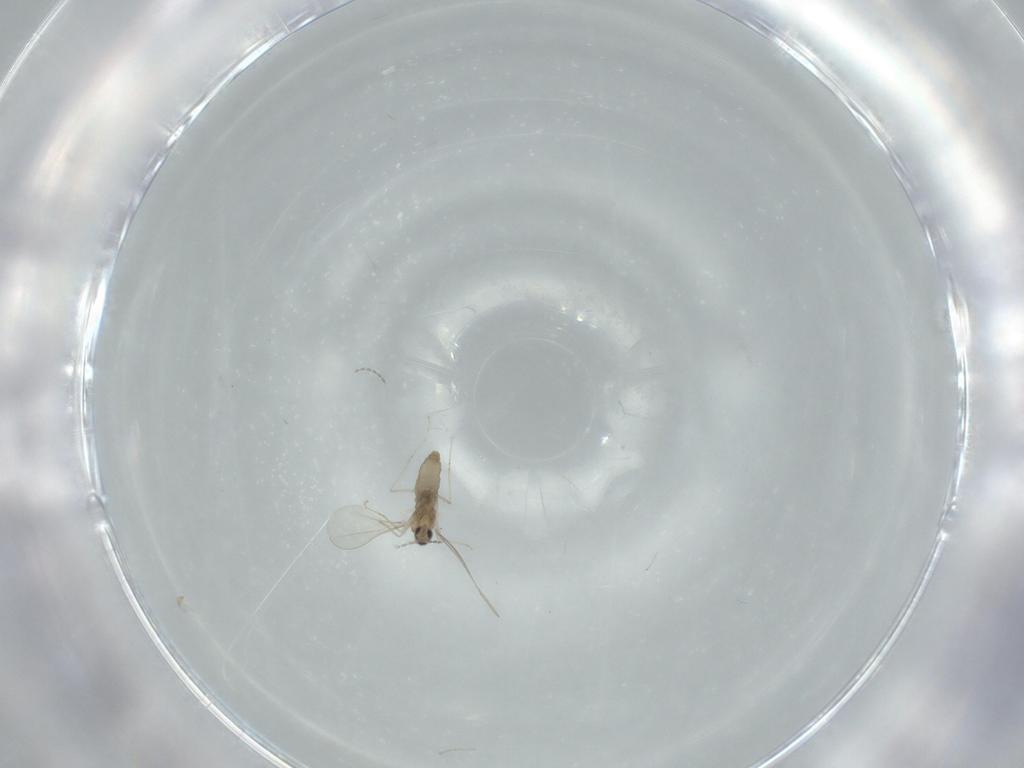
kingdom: Animalia
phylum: Arthropoda
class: Insecta
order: Diptera
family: Cecidomyiidae
